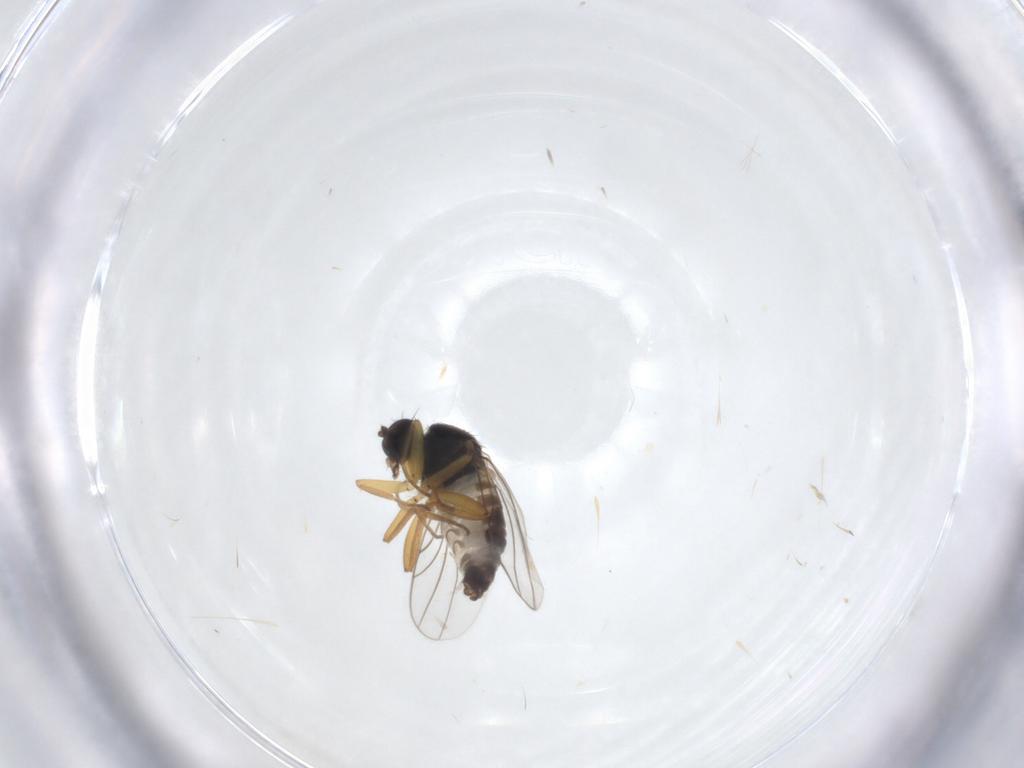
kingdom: Animalia
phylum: Arthropoda
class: Insecta
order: Diptera
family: Hybotidae
